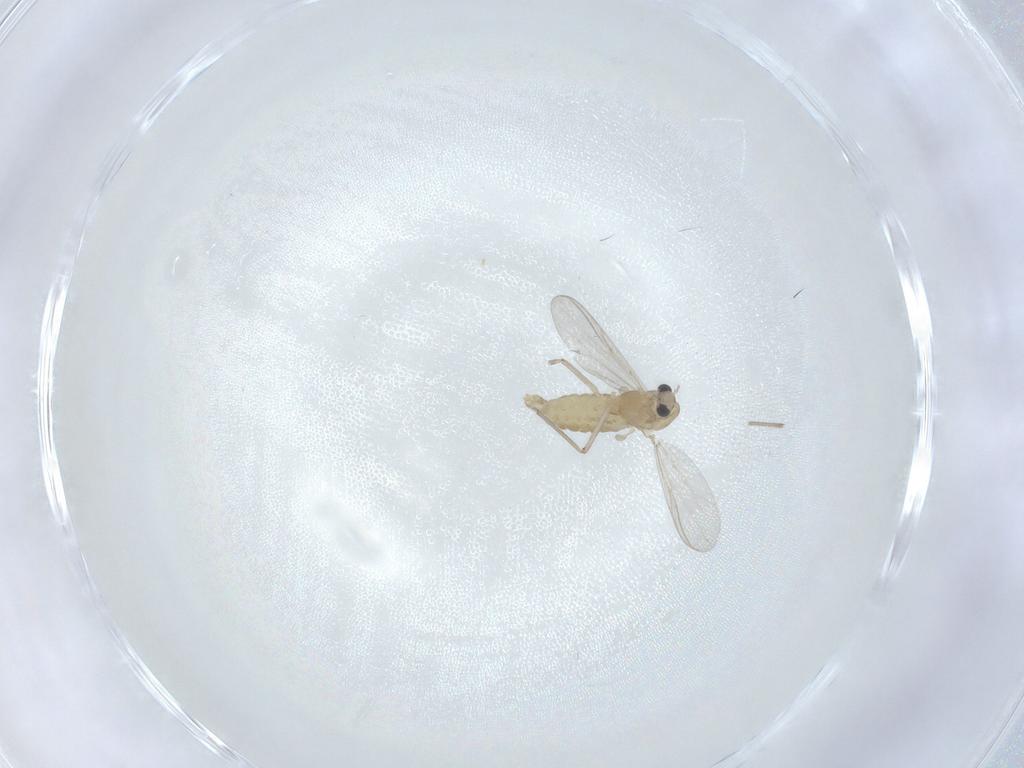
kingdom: Animalia
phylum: Arthropoda
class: Insecta
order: Diptera
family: Chironomidae
